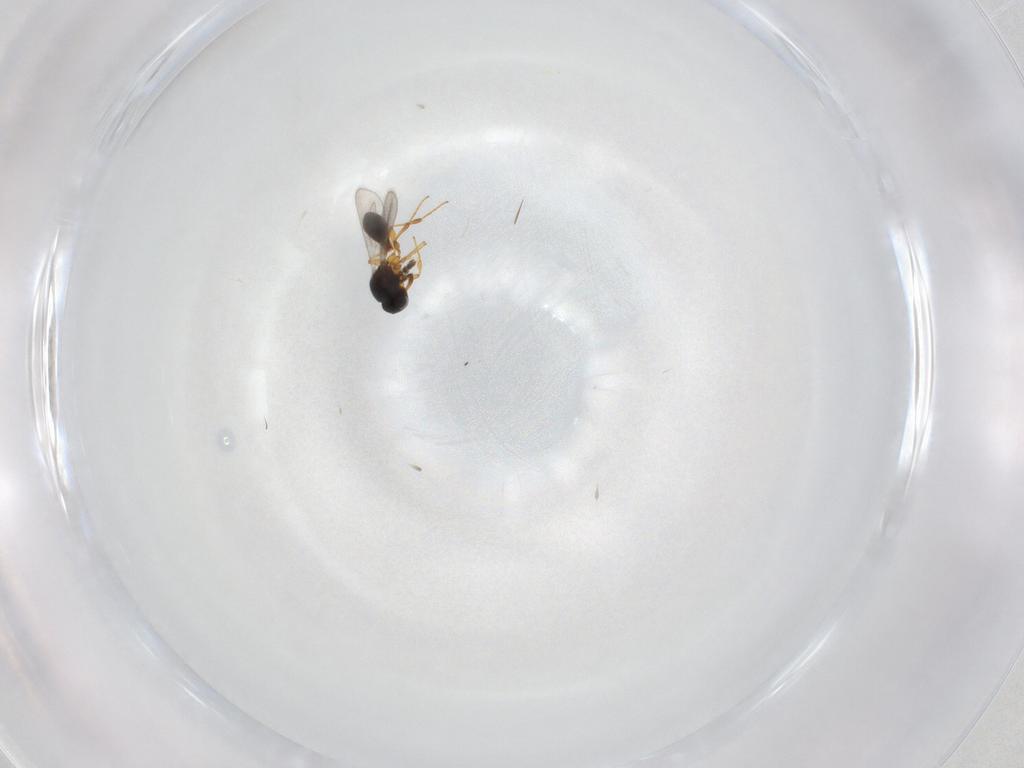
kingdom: Animalia
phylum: Arthropoda
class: Insecta
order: Hymenoptera
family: Platygastridae
